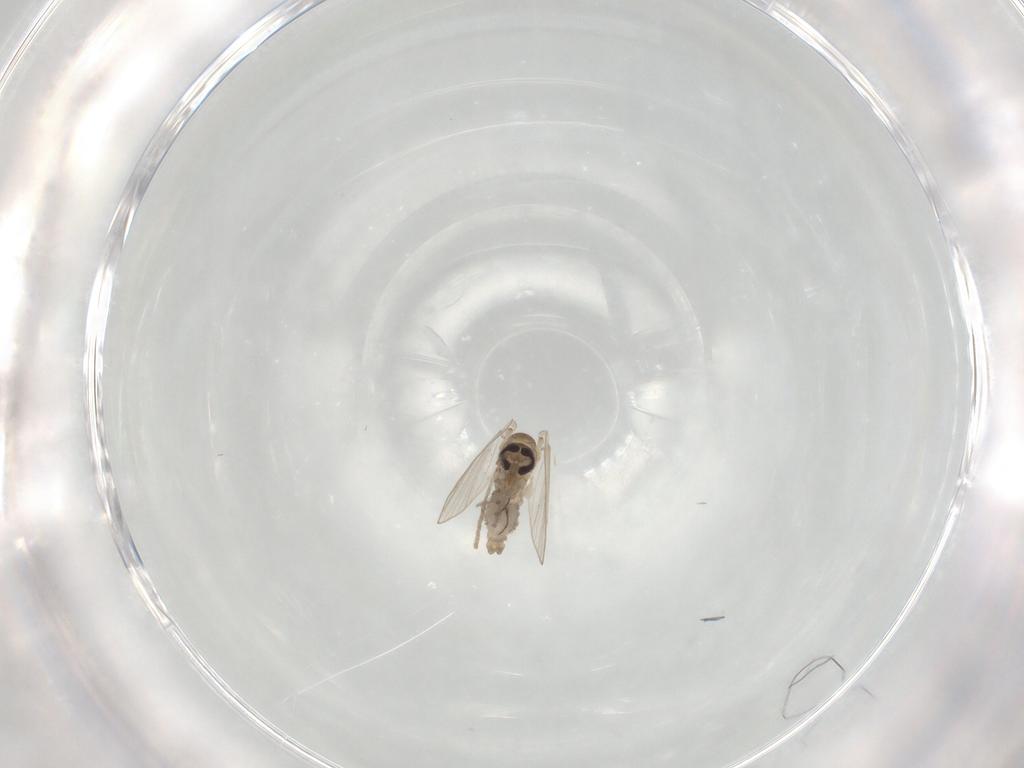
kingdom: Animalia
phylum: Arthropoda
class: Insecta
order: Diptera
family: Psychodidae
